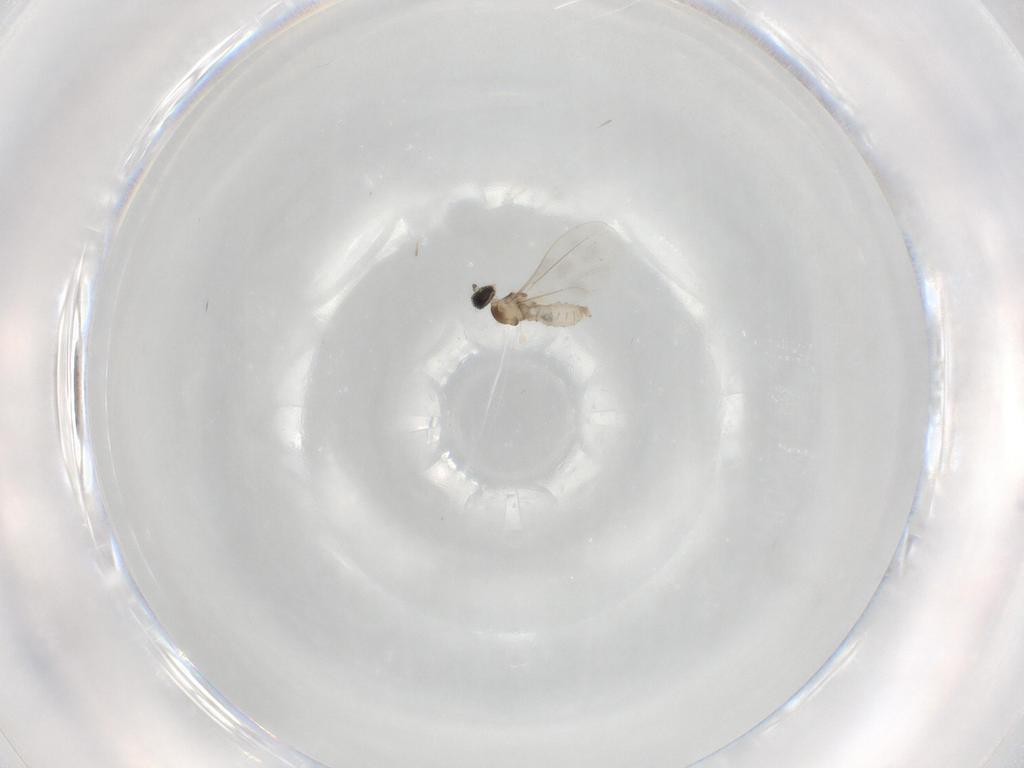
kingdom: Animalia
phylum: Arthropoda
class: Insecta
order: Diptera
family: Cecidomyiidae
